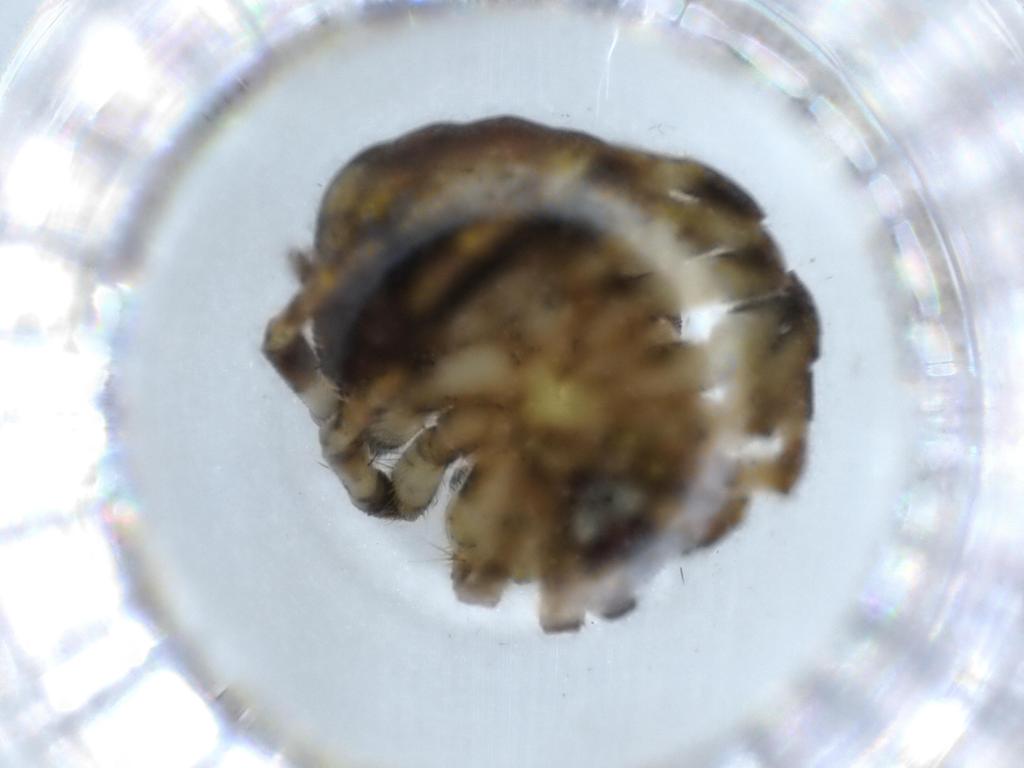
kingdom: Animalia
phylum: Arthropoda
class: Arachnida
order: Araneae
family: Araneidae
